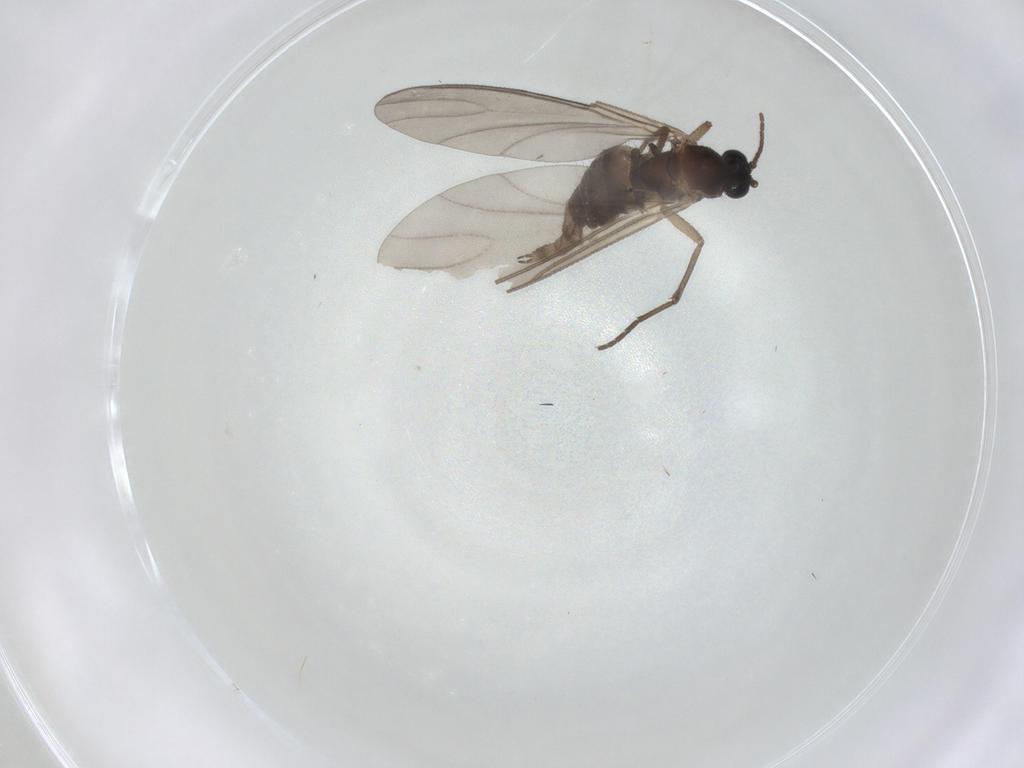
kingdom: Animalia
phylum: Arthropoda
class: Insecta
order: Diptera
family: Sciaridae
